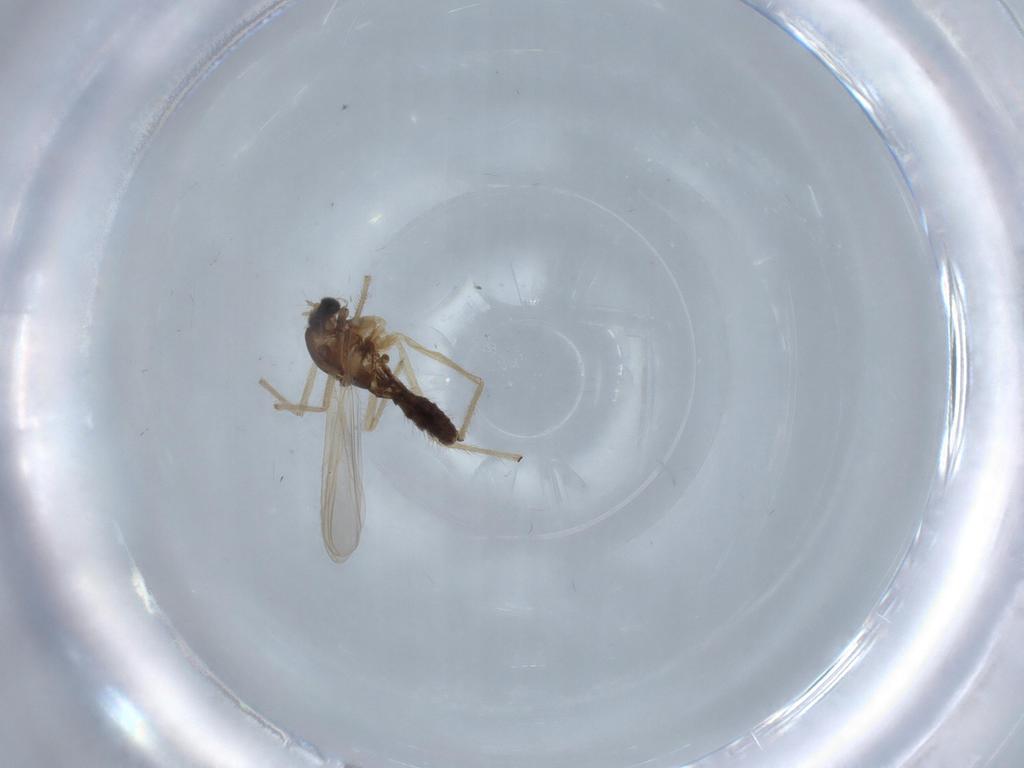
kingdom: Animalia
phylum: Arthropoda
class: Insecta
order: Diptera
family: Chironomidae
